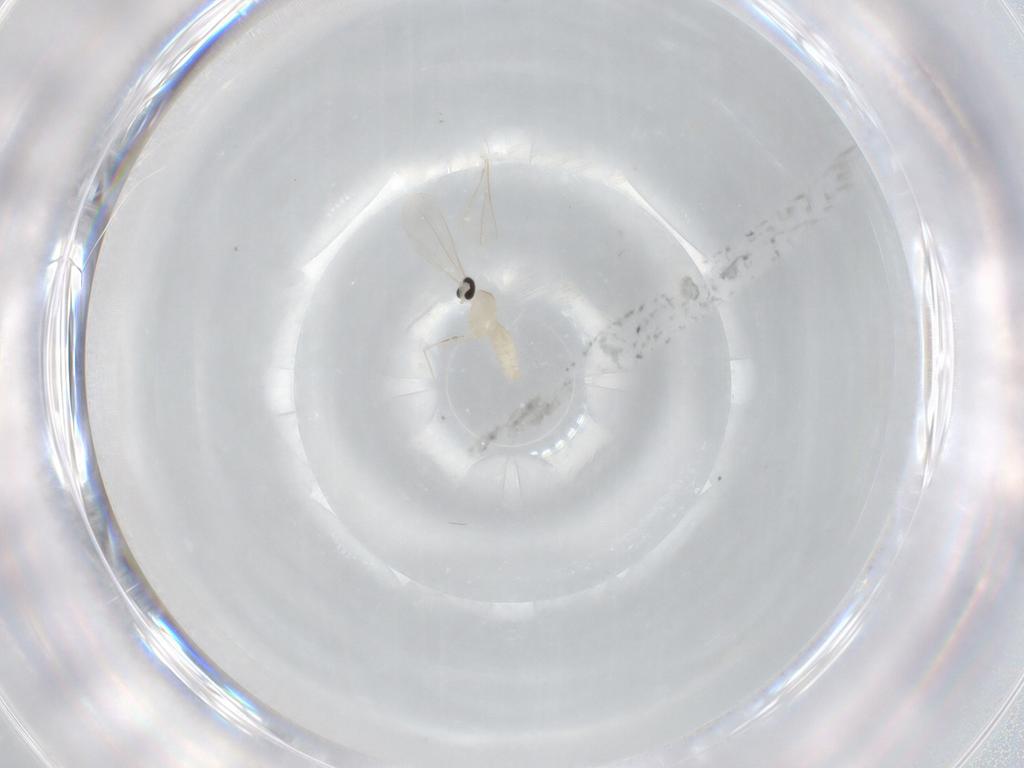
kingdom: Animalia
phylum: Arthropoda
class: Insecta
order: Diptera
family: Cecidomyiidae
